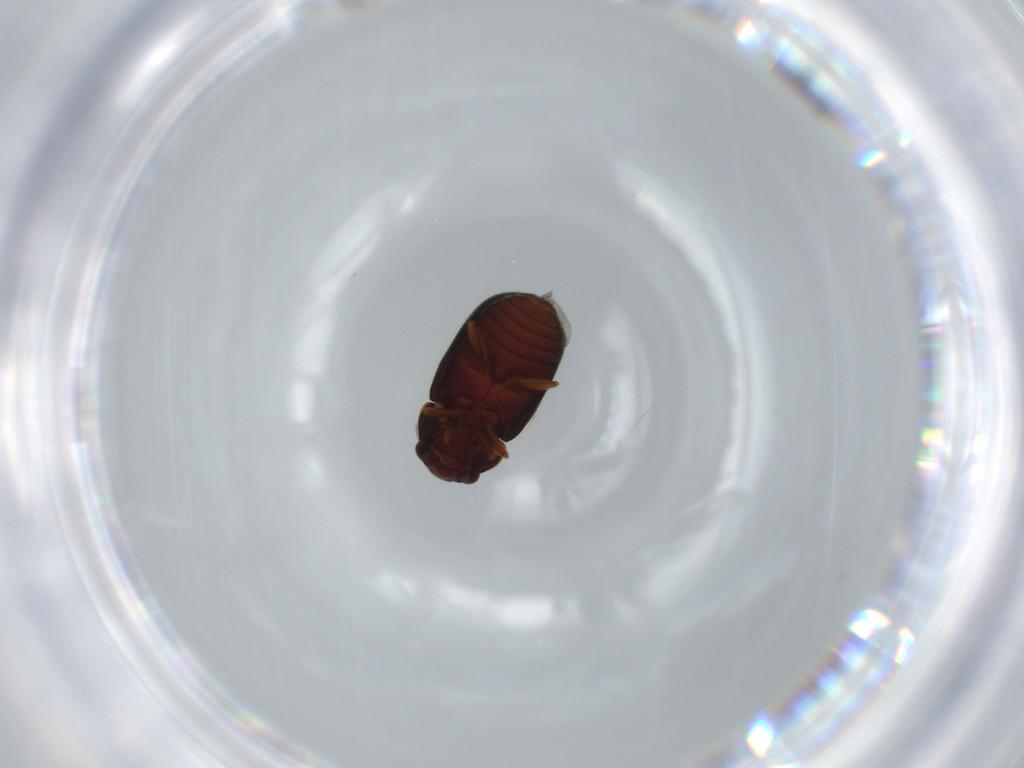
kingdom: Animalia
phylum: Arthropoda
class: Insecta
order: Coleoptera
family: Sphindidae
